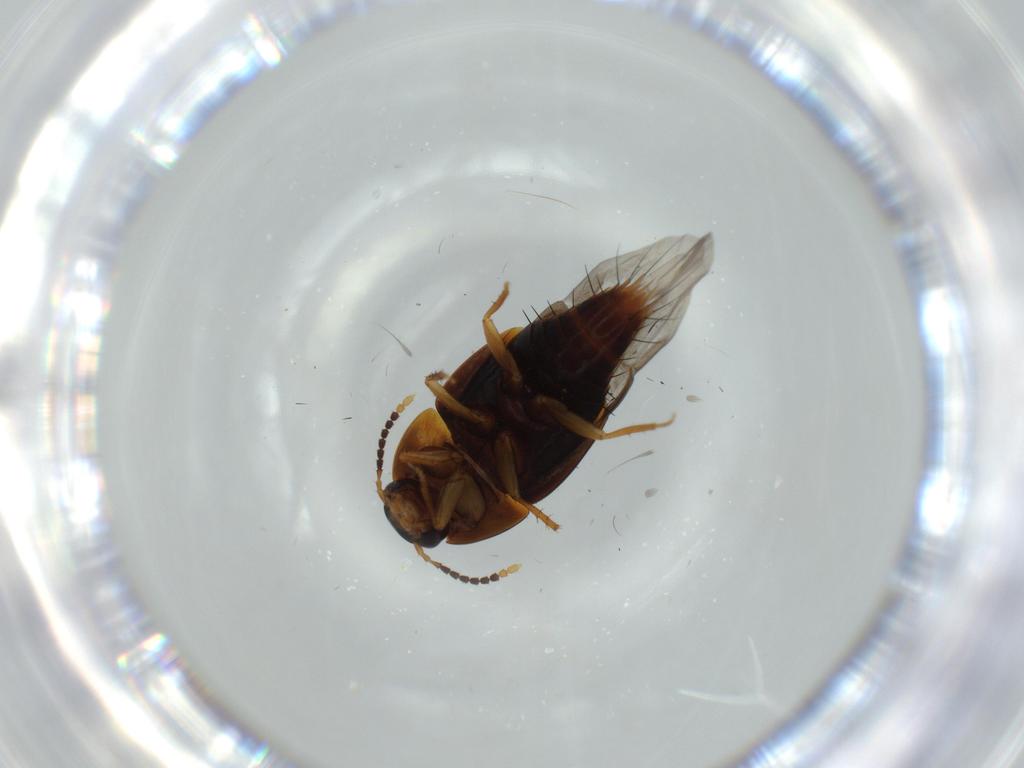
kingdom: Animalia
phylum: Arthropoda
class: Insecta
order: Coleoptera
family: Staphylinidae
